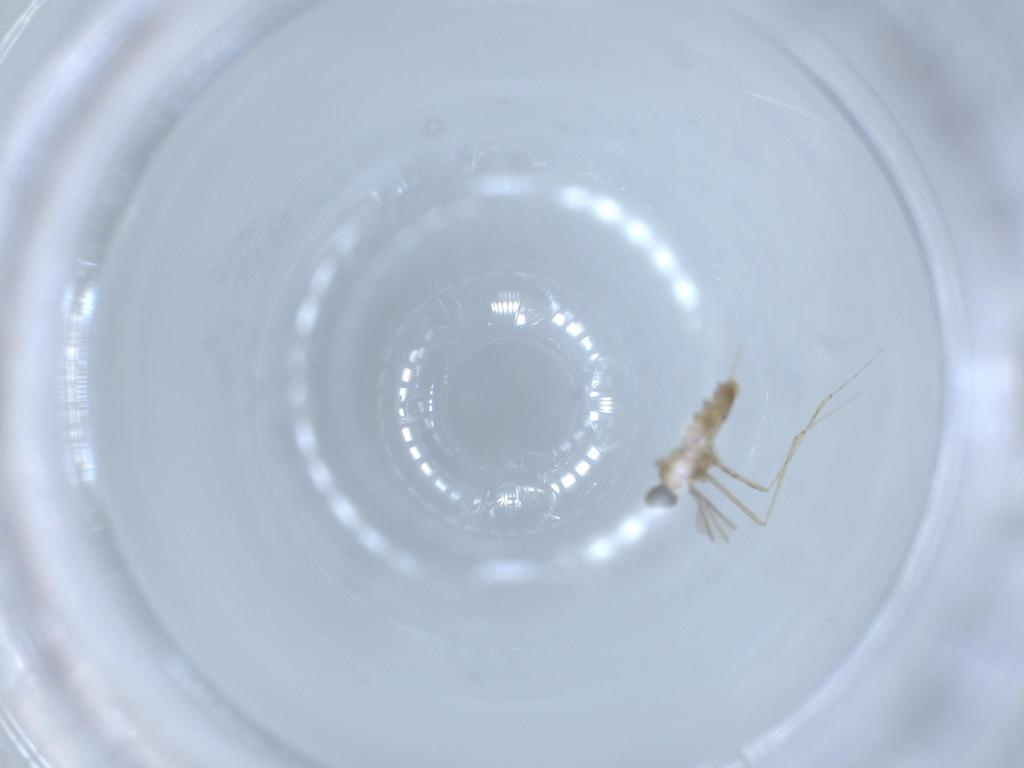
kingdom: Animalia
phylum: Arthropoda
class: Insecta
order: Diptera
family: Cecidomyiidae
